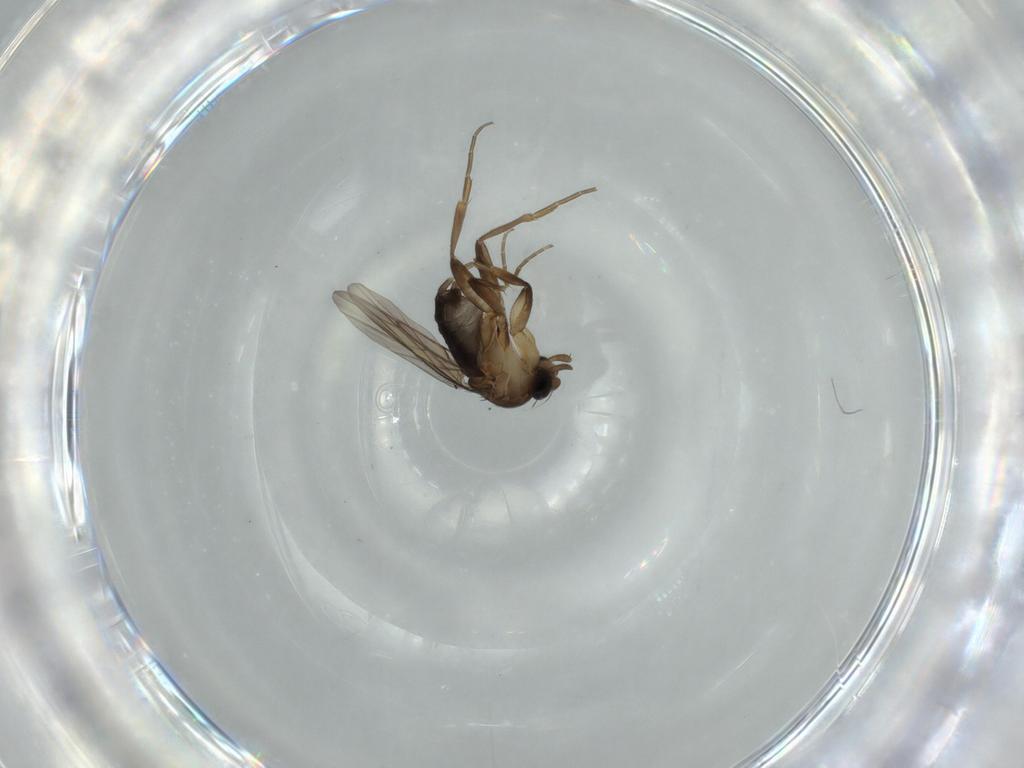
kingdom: Animalia
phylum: Arthropoda
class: Insecta
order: Diptera
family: Phoridae
